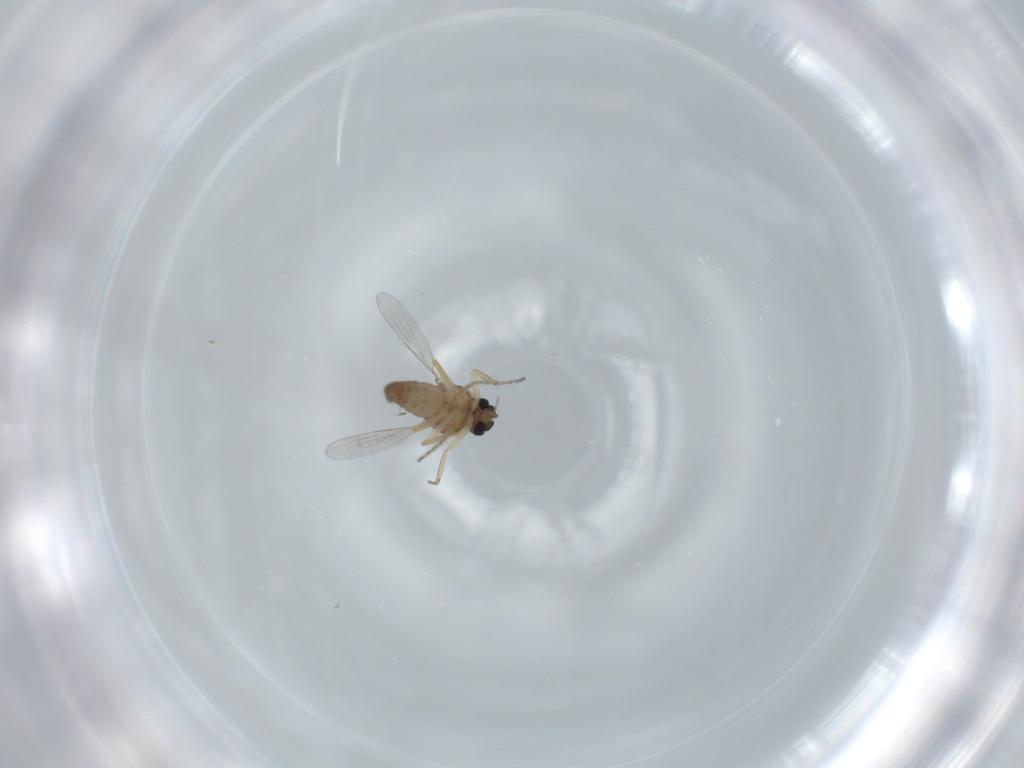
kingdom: Animalia
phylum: Arthropoda
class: Insecta
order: Diptera
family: Ceratopogonidae
